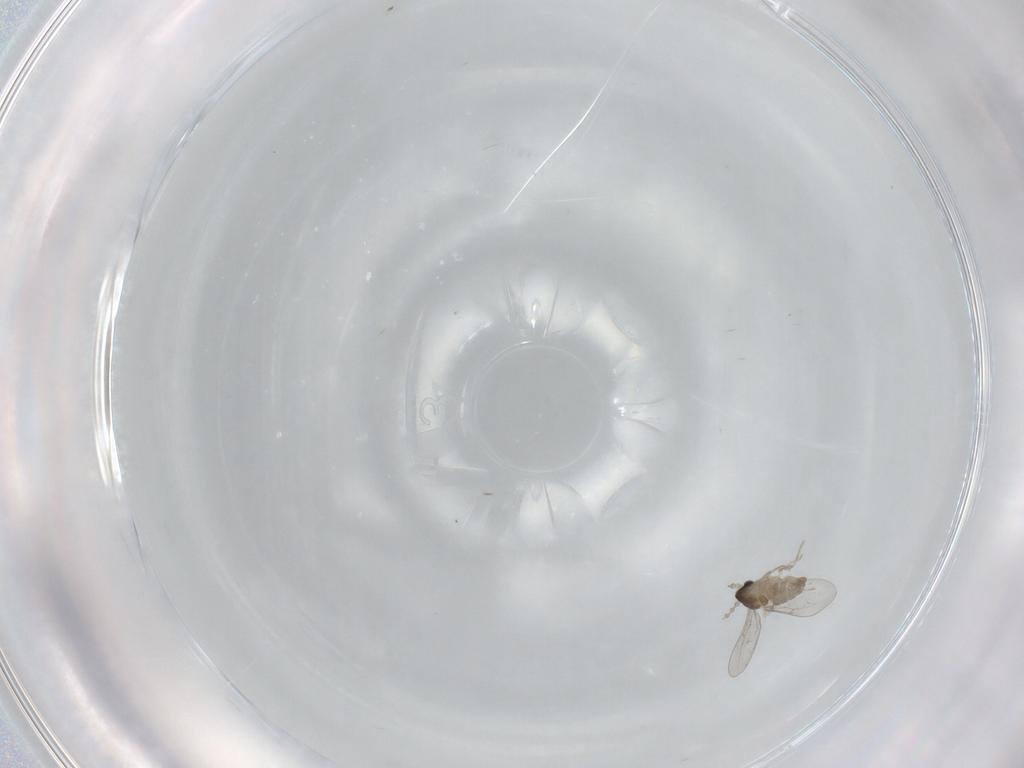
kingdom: Animalia
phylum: Arthropoda
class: Insecta
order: Diptera
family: Cecidomyiidae
